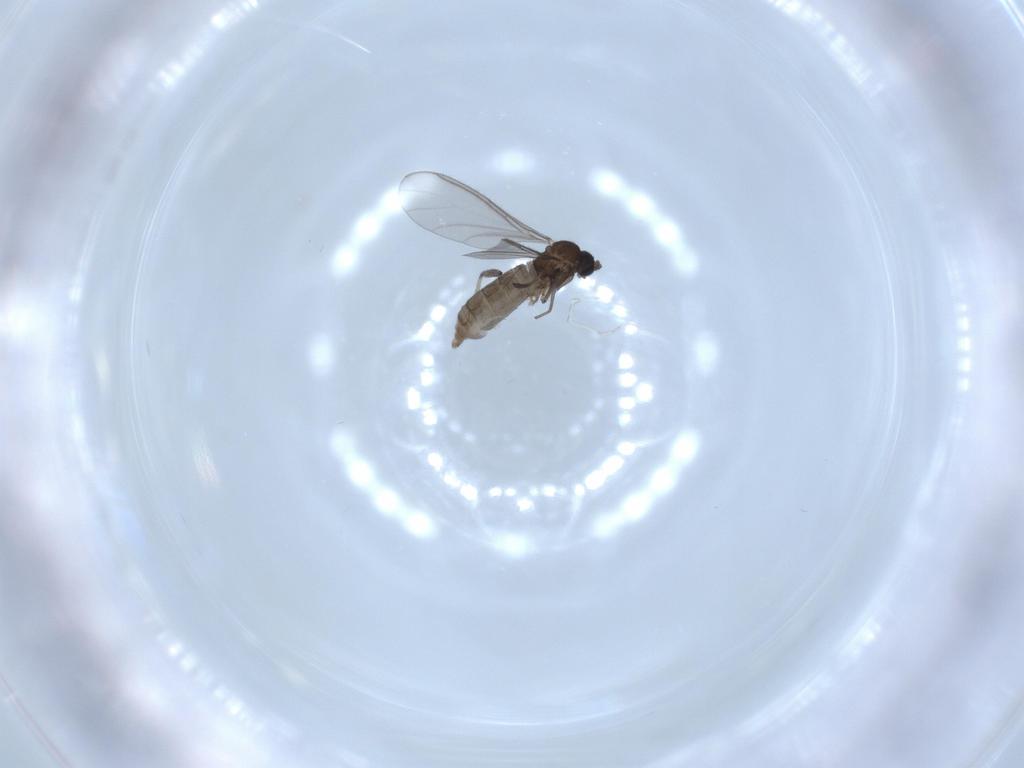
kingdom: Animalia
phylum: Arthropoda
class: Insecta
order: Diptera
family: Sciaridae
